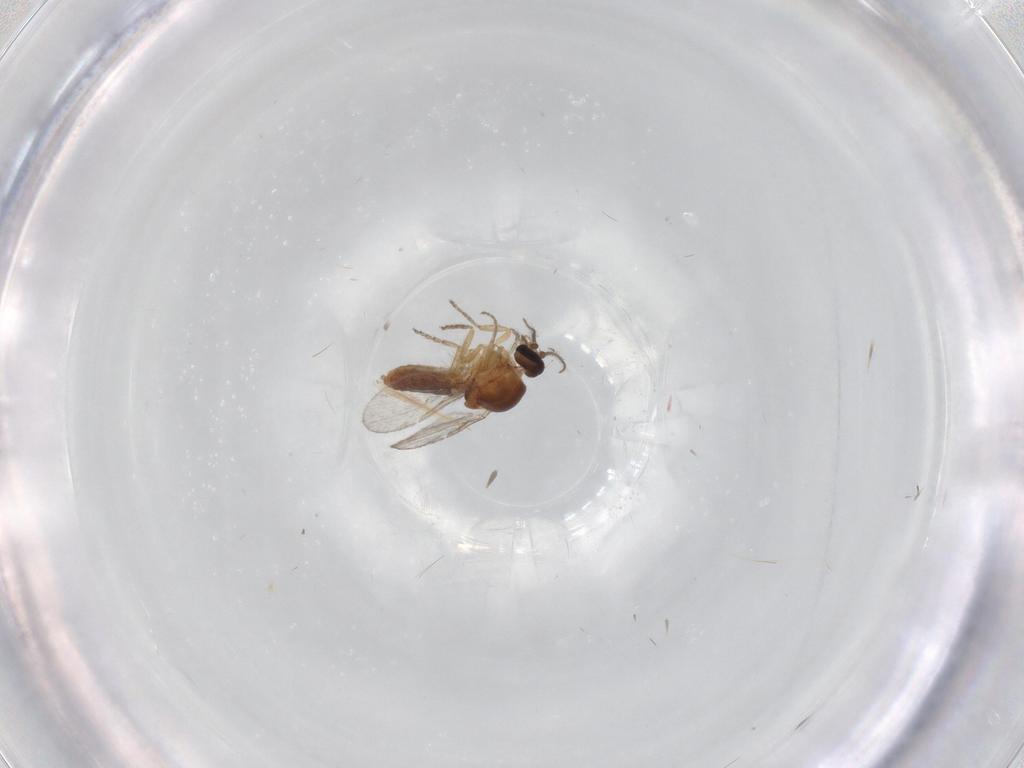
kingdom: Animalia
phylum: Arthropoda
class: Insecta
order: Diptera
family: Ceratopogonidae
